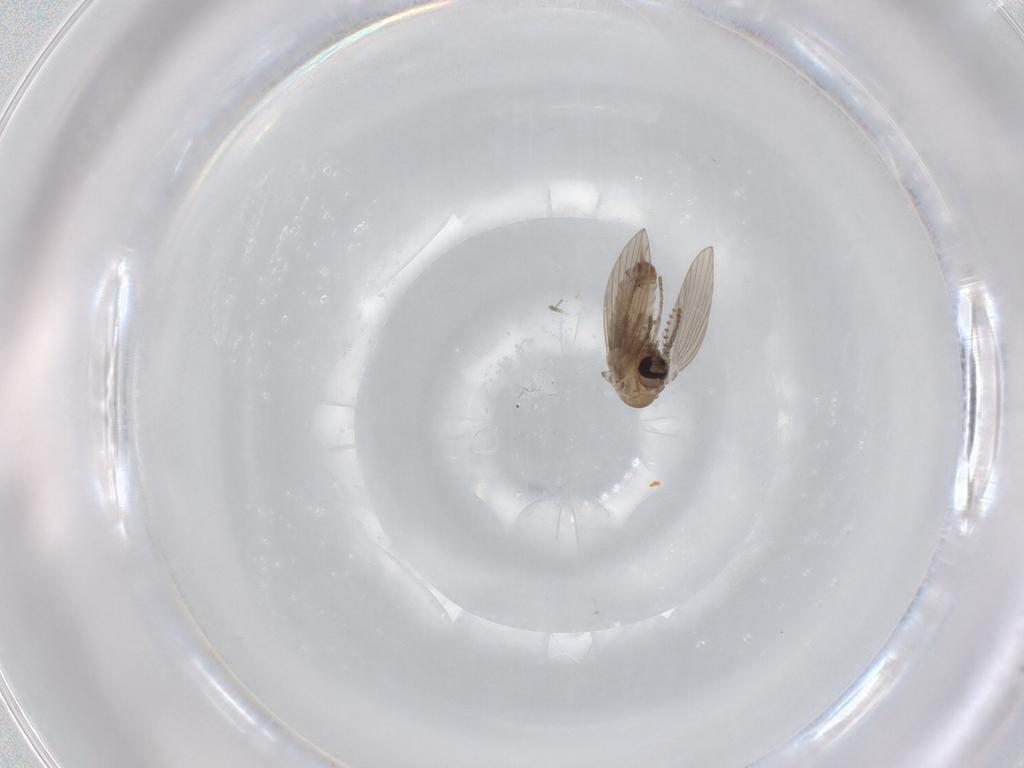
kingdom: Animalia
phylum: Arthropoda
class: Insecta
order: Diptera
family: Psychodidae
